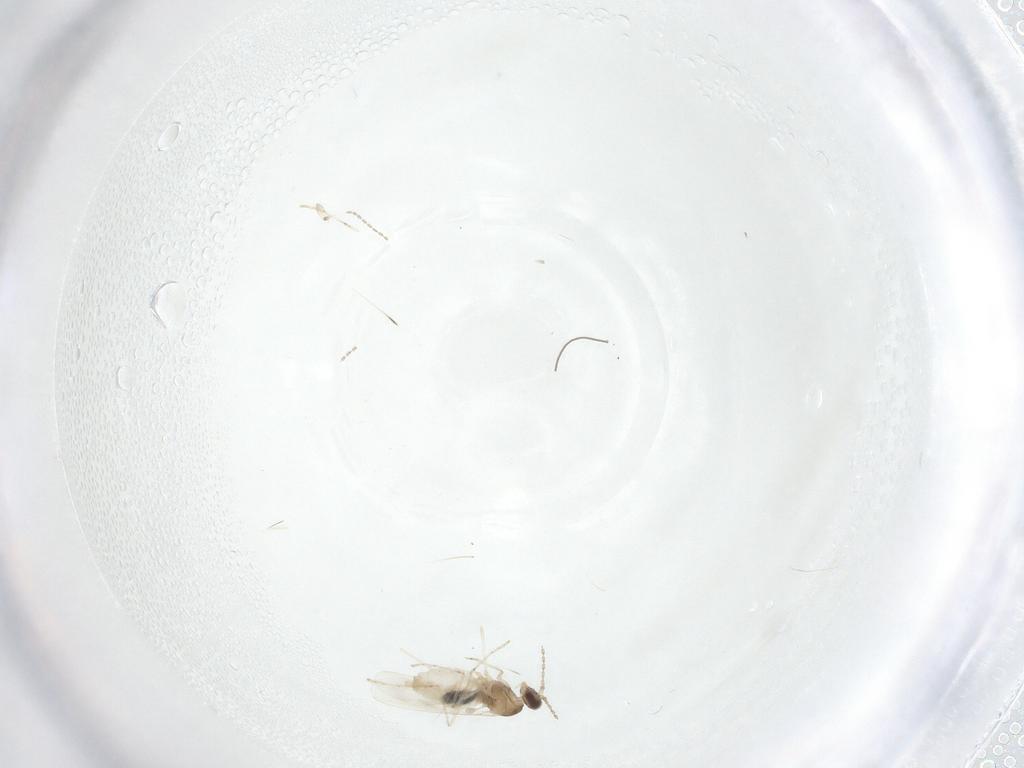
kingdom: Animalia
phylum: Arthropoda
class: Insecta
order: Diptera
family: Cecidomyiidae
